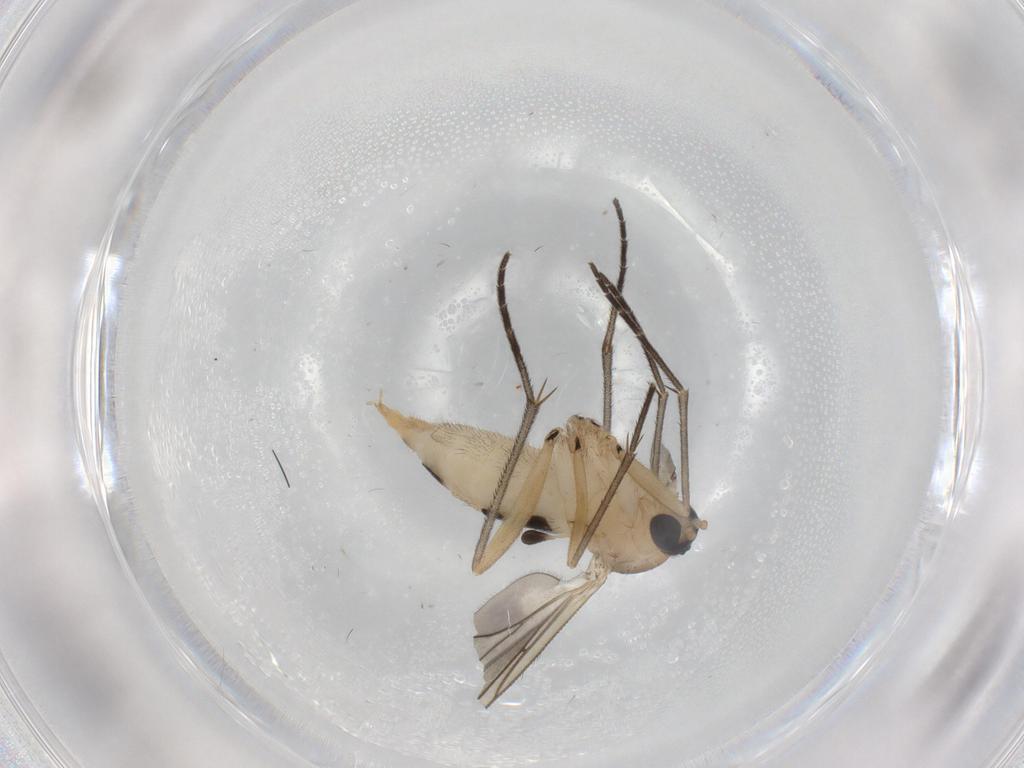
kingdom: Animalia
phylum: Arthropoda
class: Insecta
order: Diptera
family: Sciaridae
